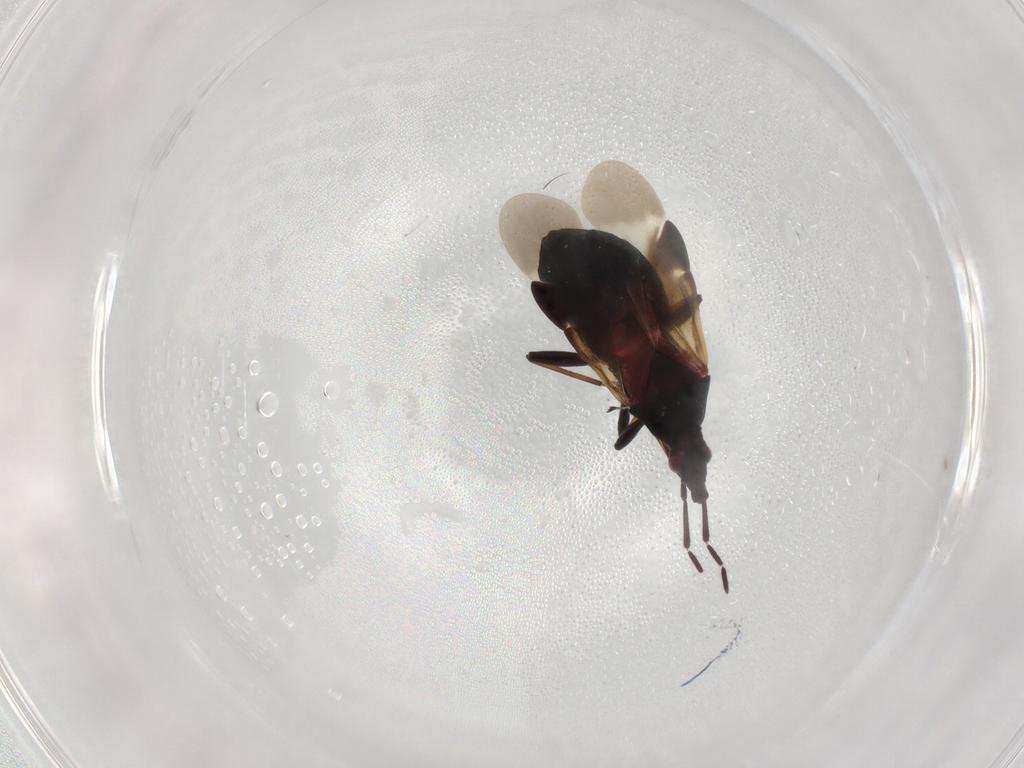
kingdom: Animalia
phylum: Arthropoda
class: Insecta
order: Hemiptera
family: Anthocoridae
